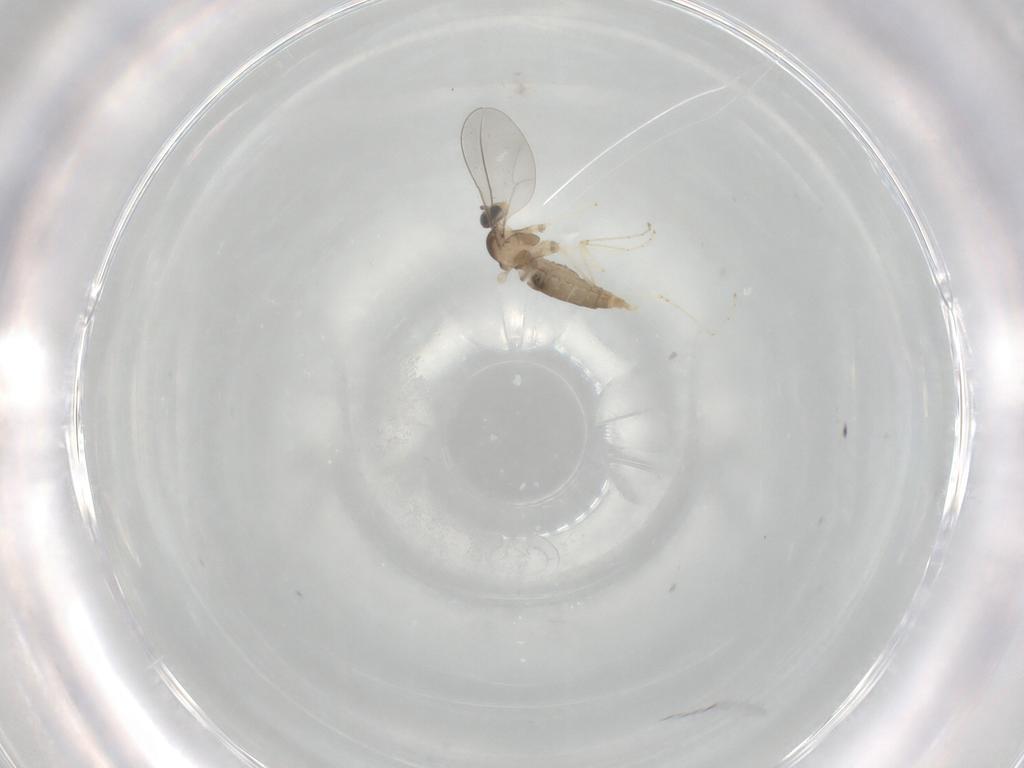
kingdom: Animalia
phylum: Arthropoda
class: Insecta
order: Diptera
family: Cecidomyiidae
